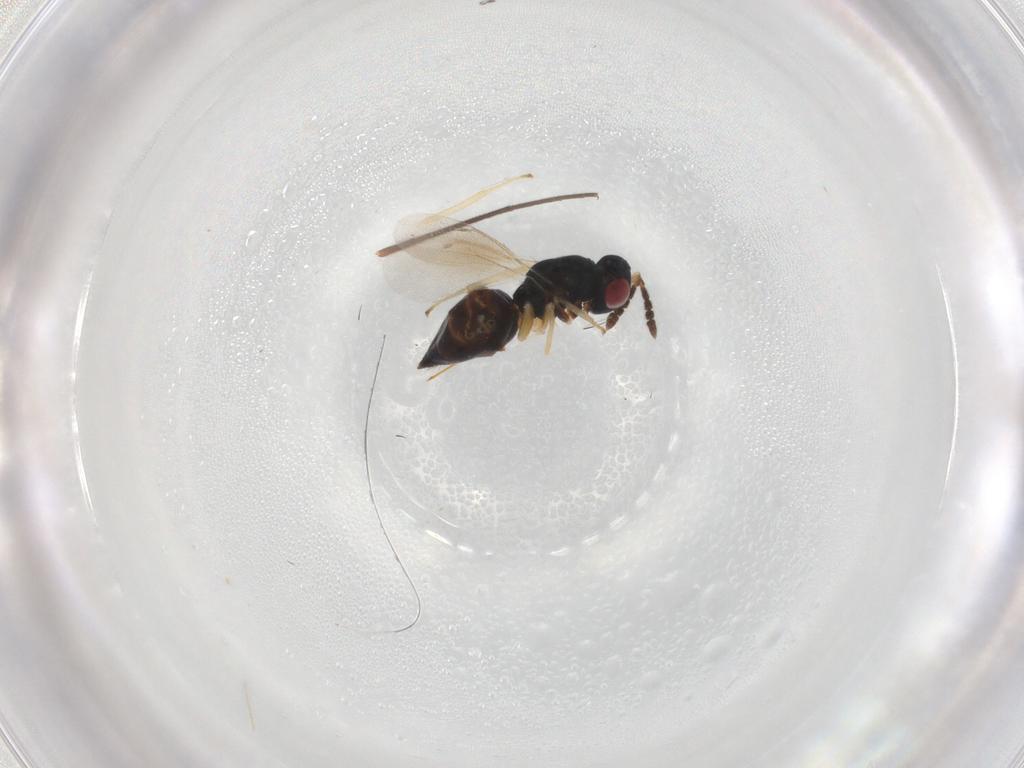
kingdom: Animalia
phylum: Arthropoda
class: Insecta
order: Hymenoptera
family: Eulophidae
